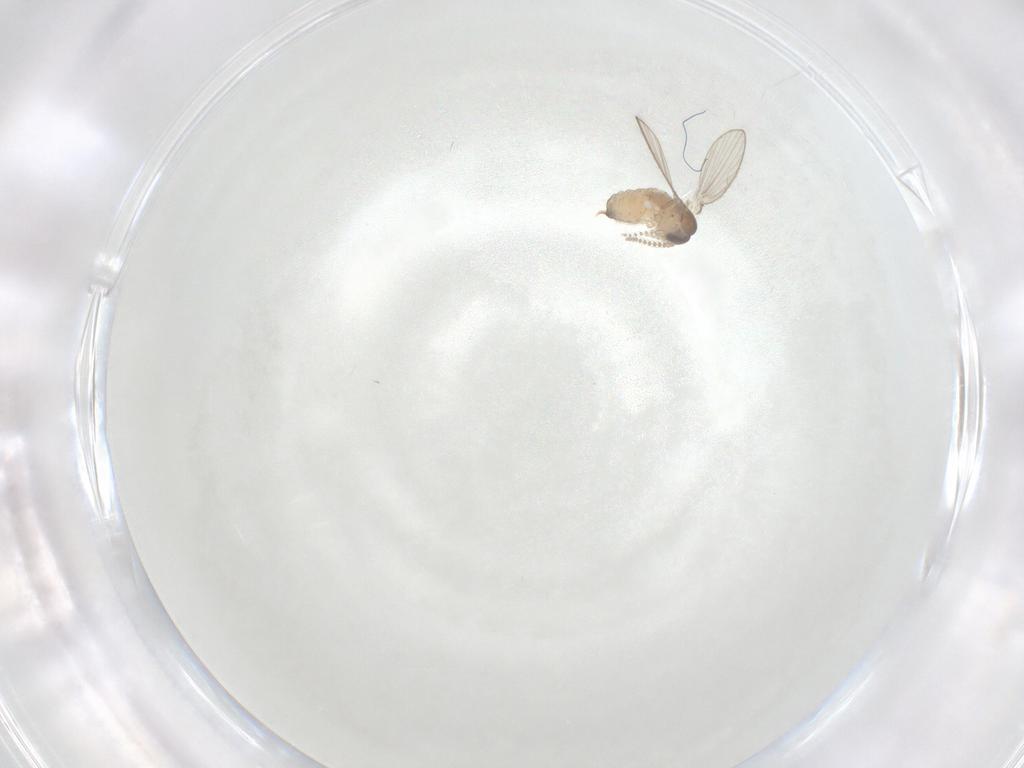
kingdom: Animalia
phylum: Arthropoda
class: Insecta
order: Diptera
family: Psychodidae
